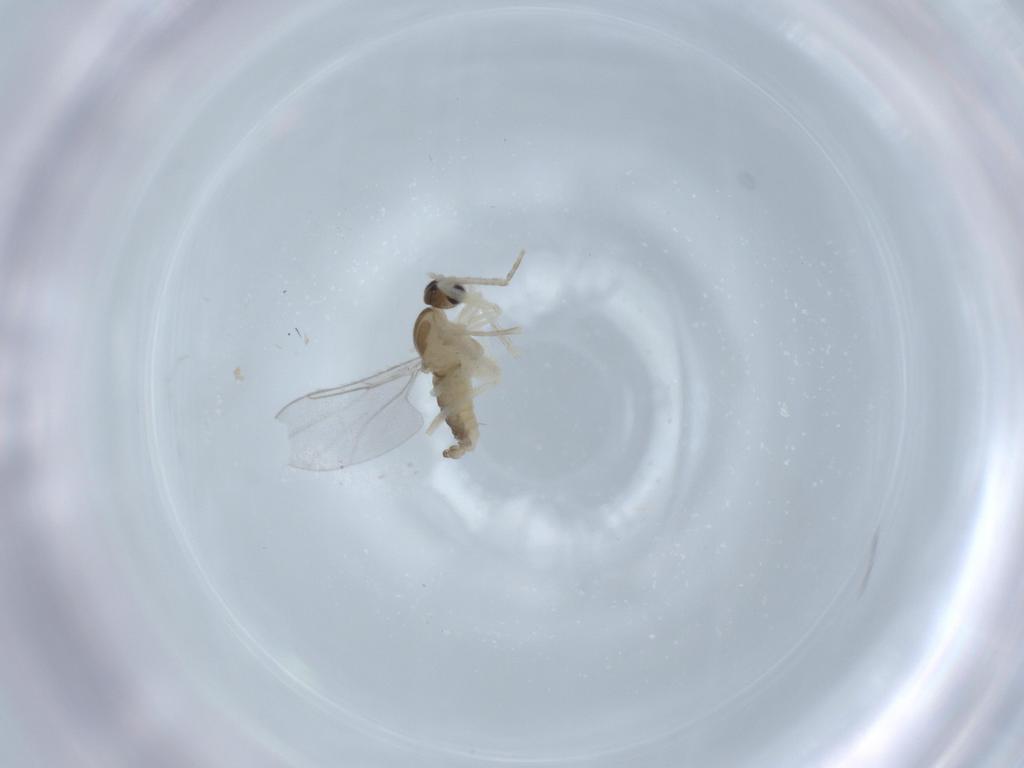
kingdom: Animalia
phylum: Arthropoda
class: Insecta
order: Diptera
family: Cecidomyiidae
